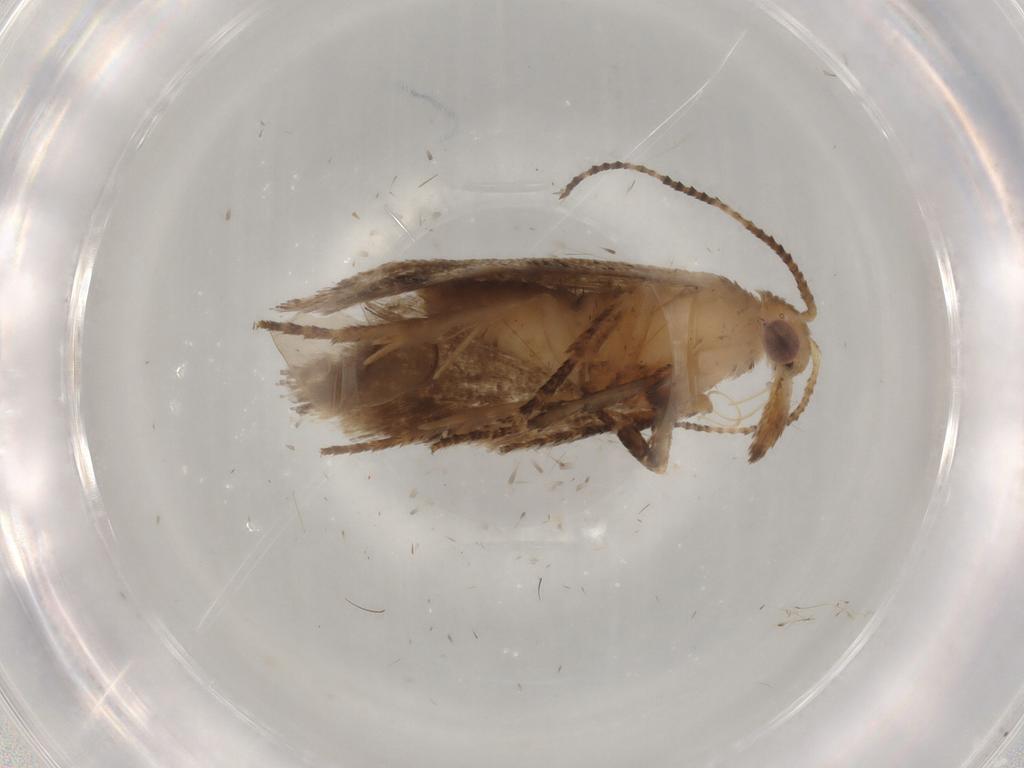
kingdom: Animalia
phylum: Arthropoda
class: Insecta
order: Lepidoptera
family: Ypsolophidae
